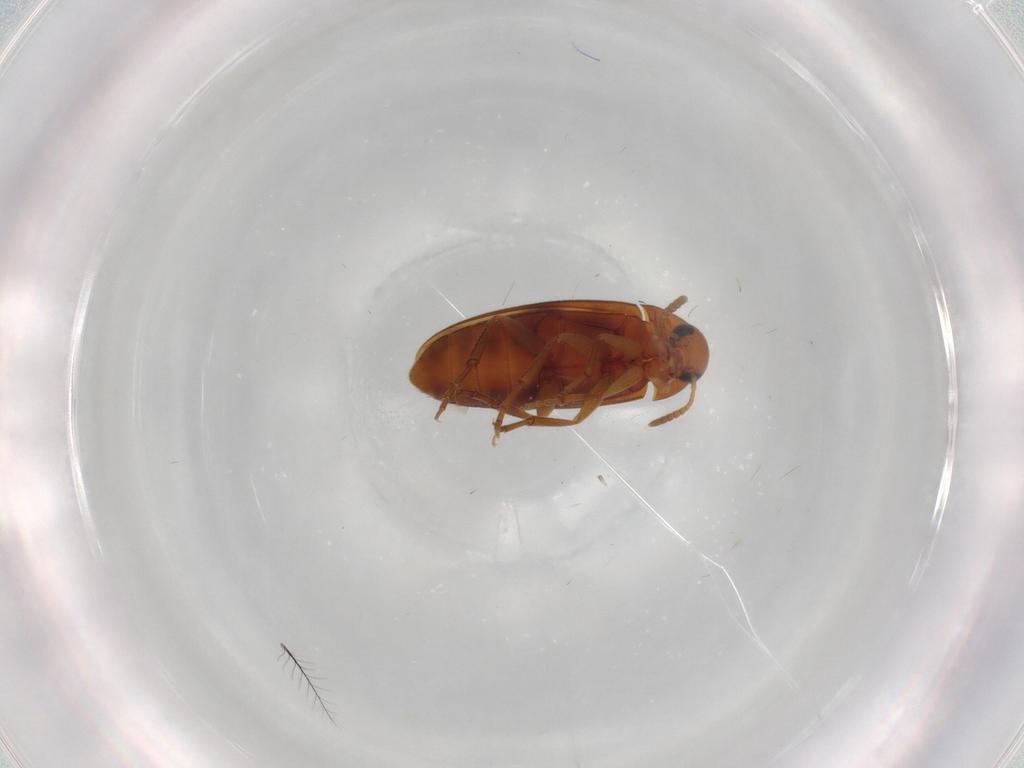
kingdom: Animalia
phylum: Arthropoda
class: Insecta
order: Coleoptera
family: Scraptiidae
